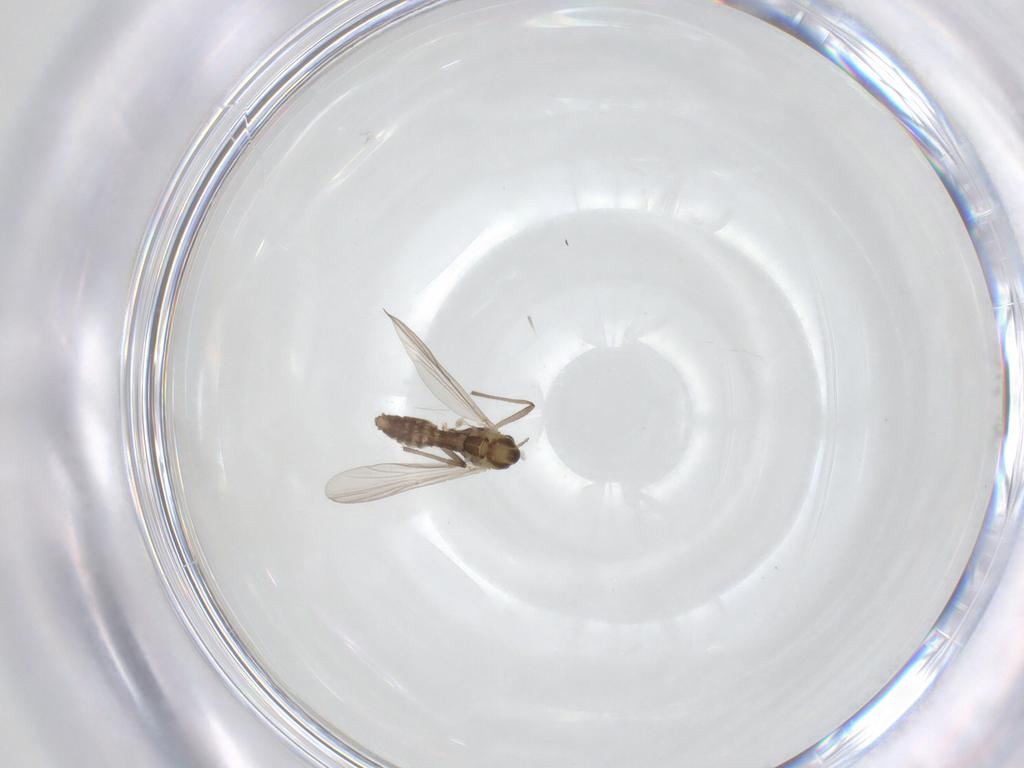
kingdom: Animalia
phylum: Arthropoda
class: Insecta
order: Diptera
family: Chironomidae
